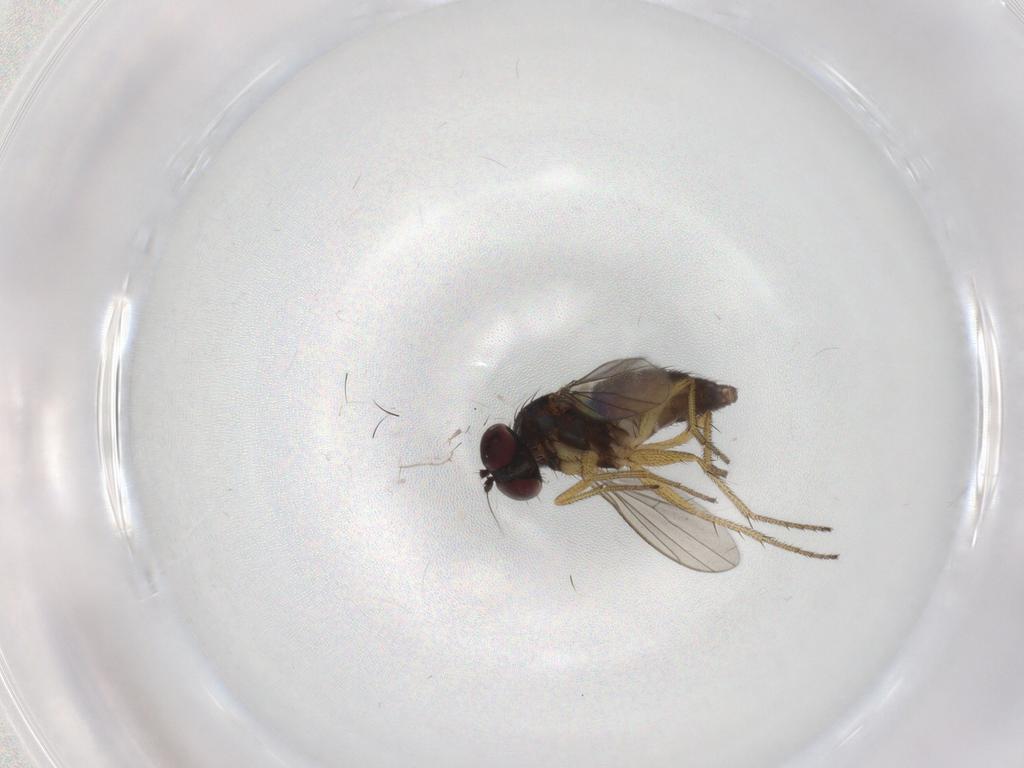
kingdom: Animalia
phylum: Arthropoda
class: Insecta
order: Diptera
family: Dolichopodidae
